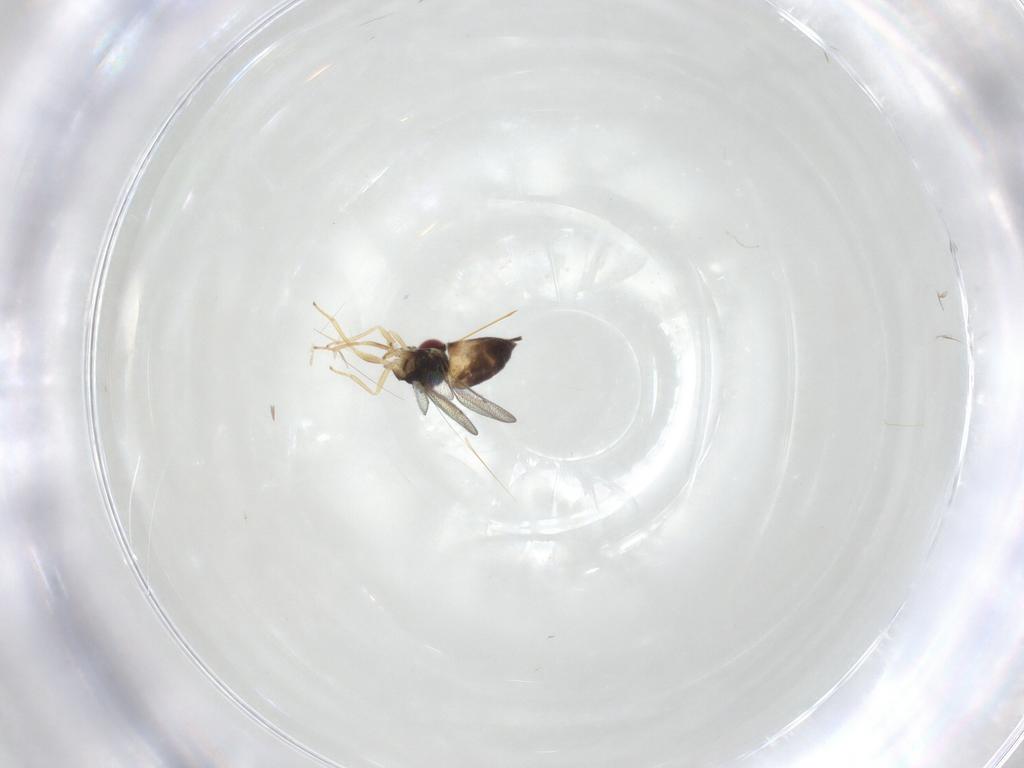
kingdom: Animalia
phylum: Arthropoda
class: Insecta
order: Hymenoptera
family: Eulophidae
